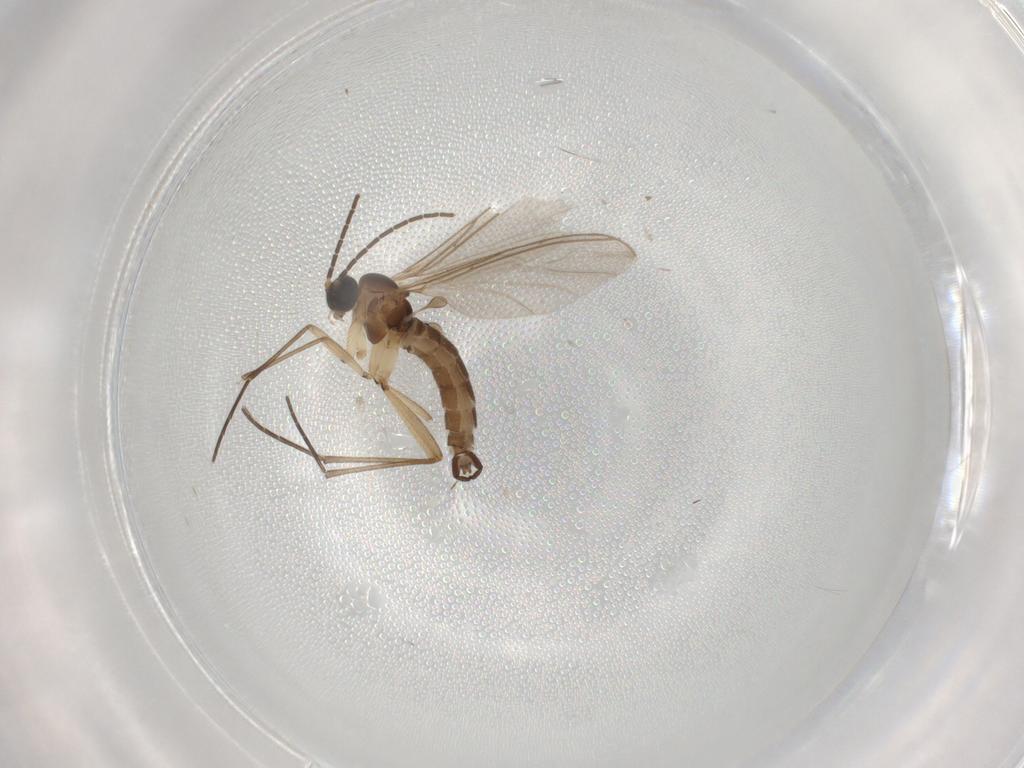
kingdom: Animalia
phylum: Arthropoda
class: Insecta
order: Diptera
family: Sciaridae
